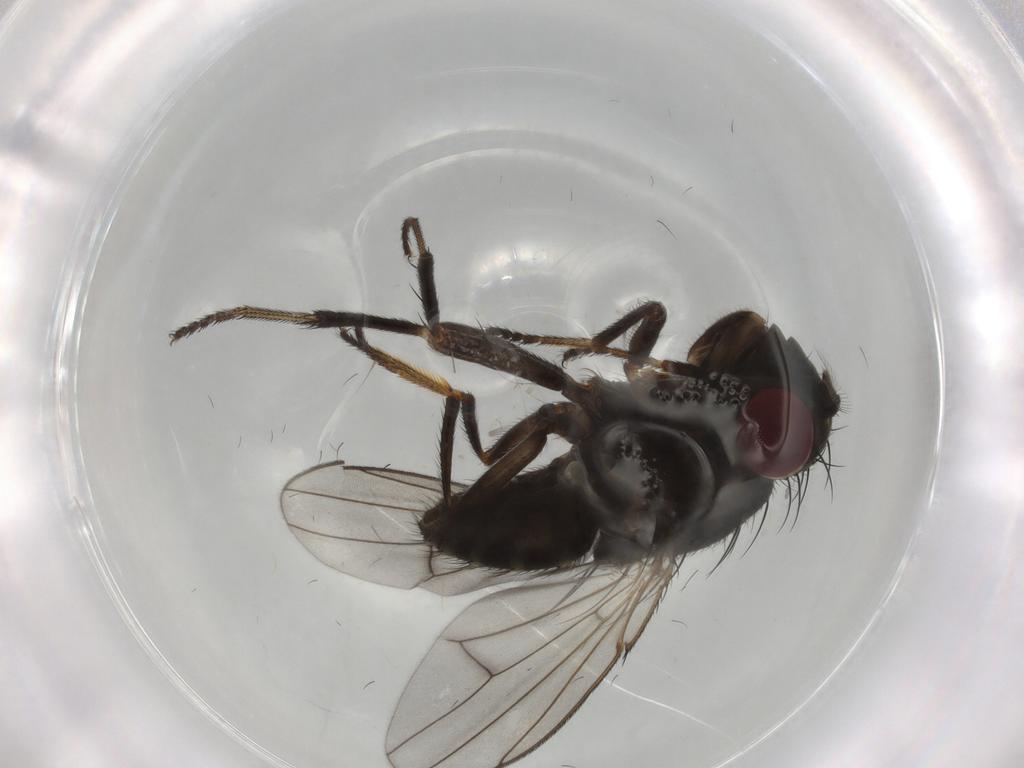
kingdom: Animalia
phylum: Arthropoda
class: Insecta
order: Diptera
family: Ephydridae
